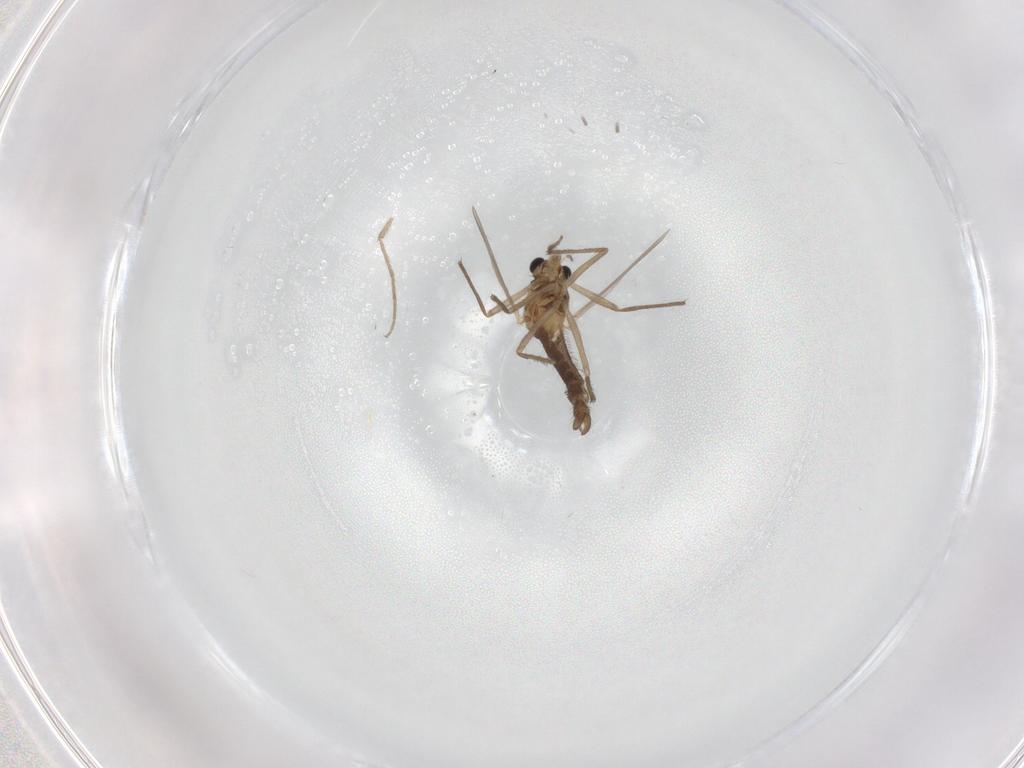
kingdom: Animalia
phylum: Arthropoda
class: Insecta
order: Diptera
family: Chironomidae
